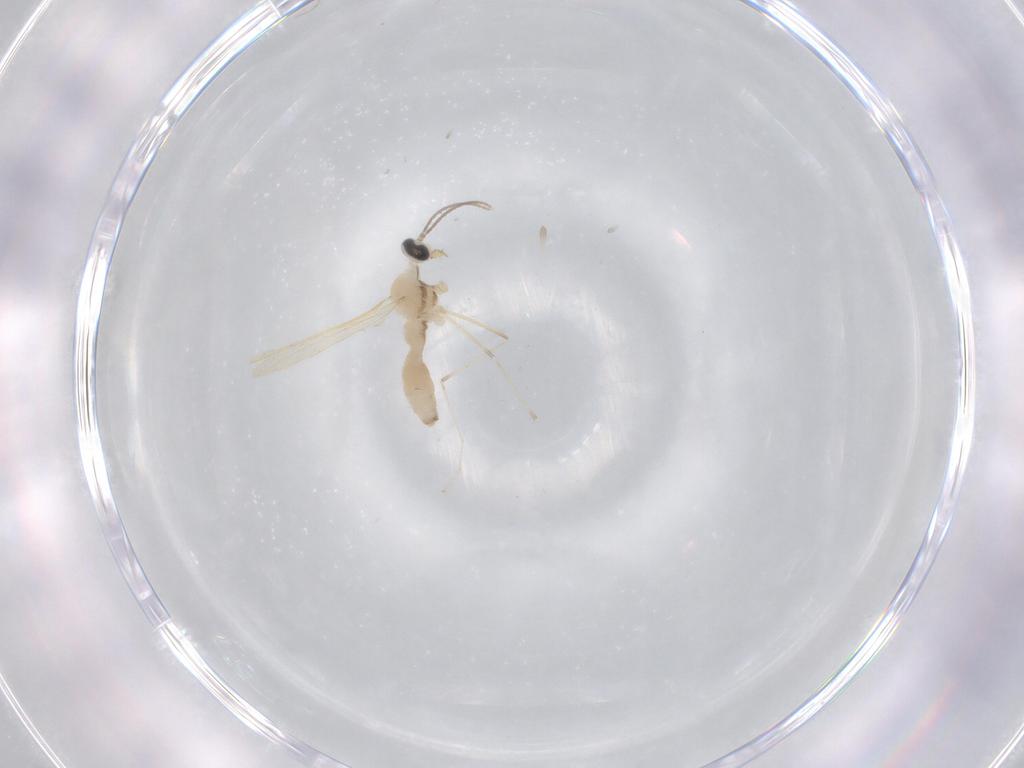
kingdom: Animalia
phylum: Arthropoda
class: Insecta
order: Diptera
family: Cecidomyiidae
